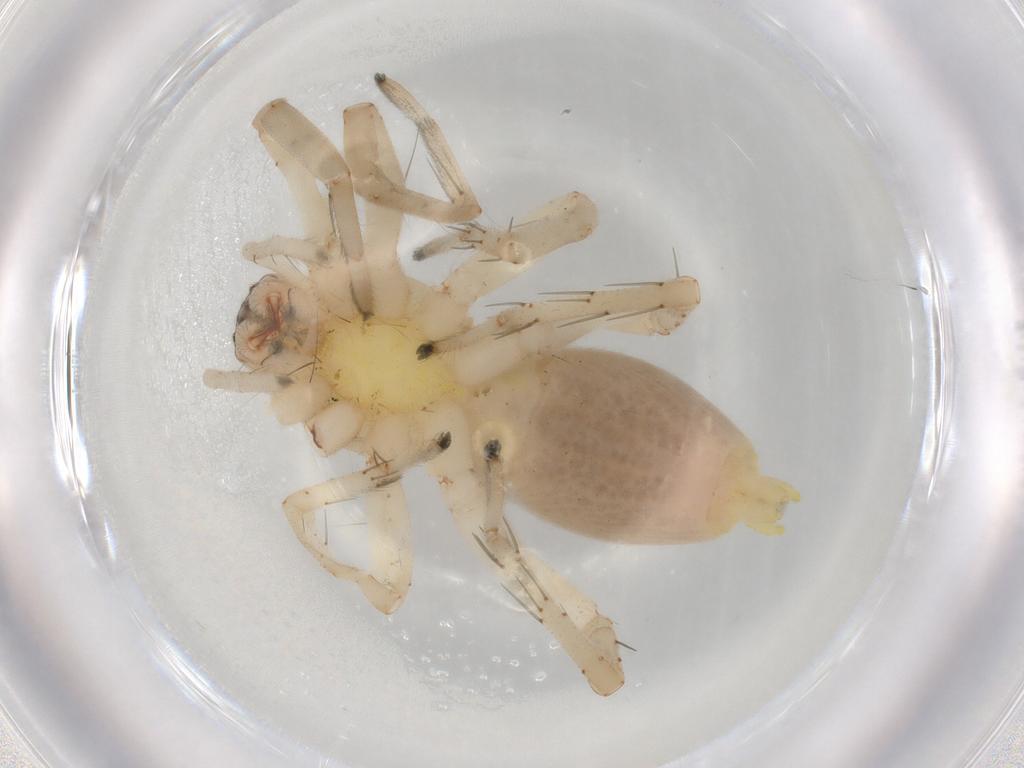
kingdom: Animalia
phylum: Arthropoda
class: Insecta
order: Hemiptera
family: Cicadellidae
